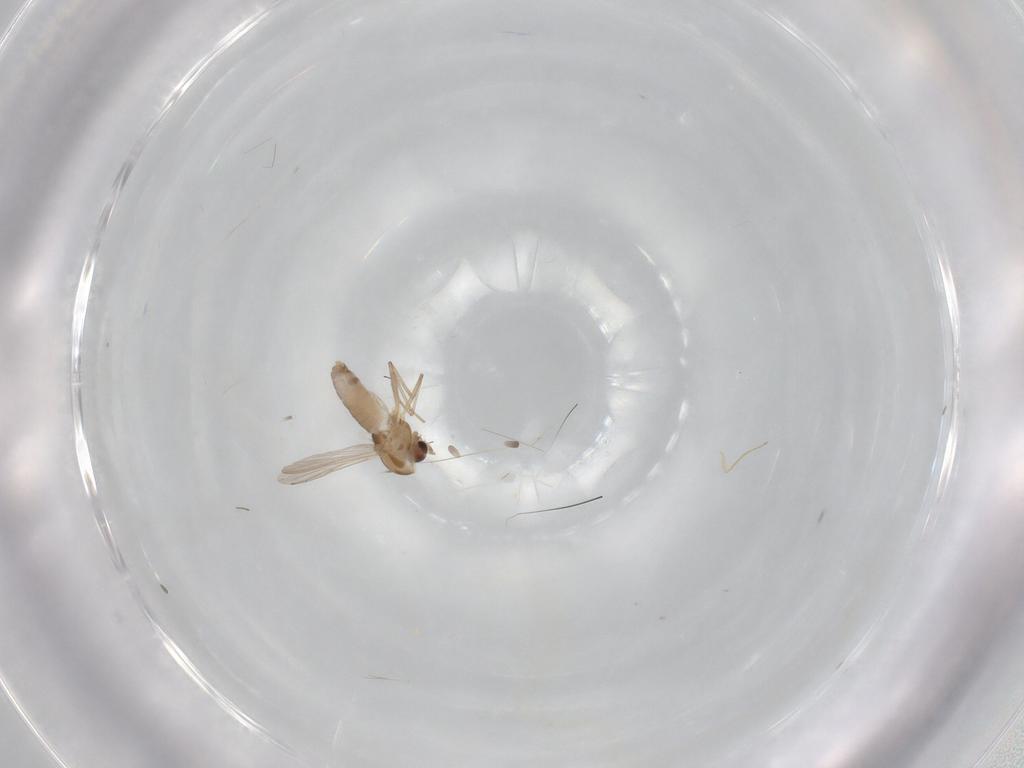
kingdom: Animalia
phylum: Arthropoda
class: Insecta
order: Diptera
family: Chironomidae
